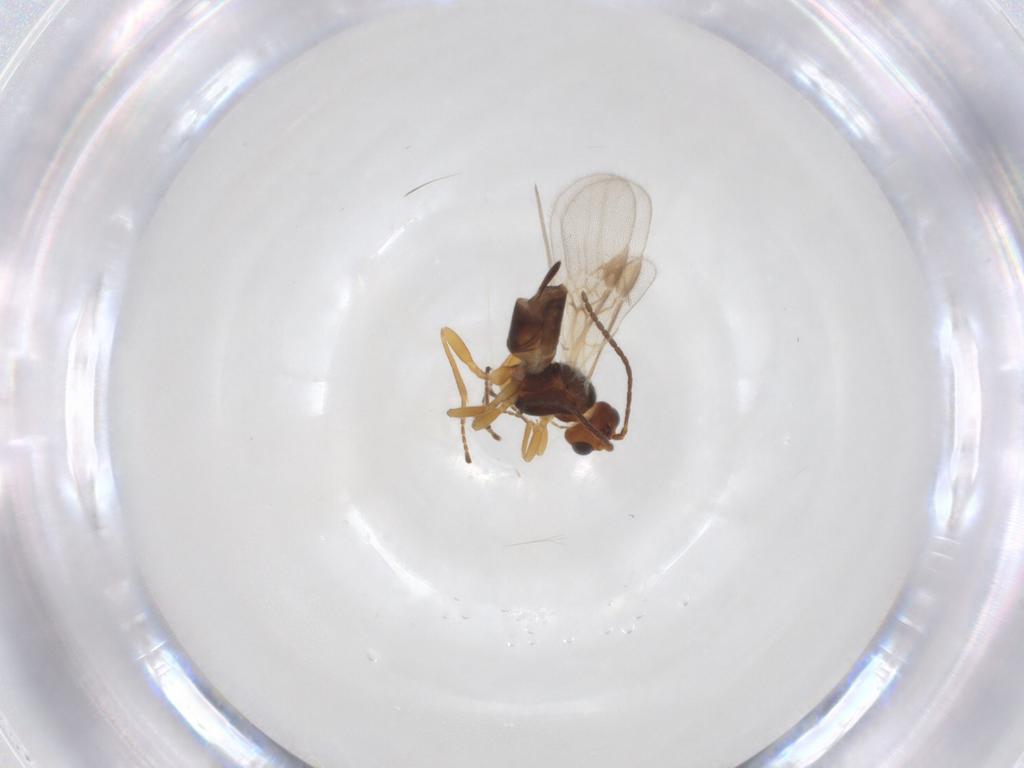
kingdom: Animalia
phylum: Arthropoda
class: Insecta
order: Hymenoptera
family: Braconidae
